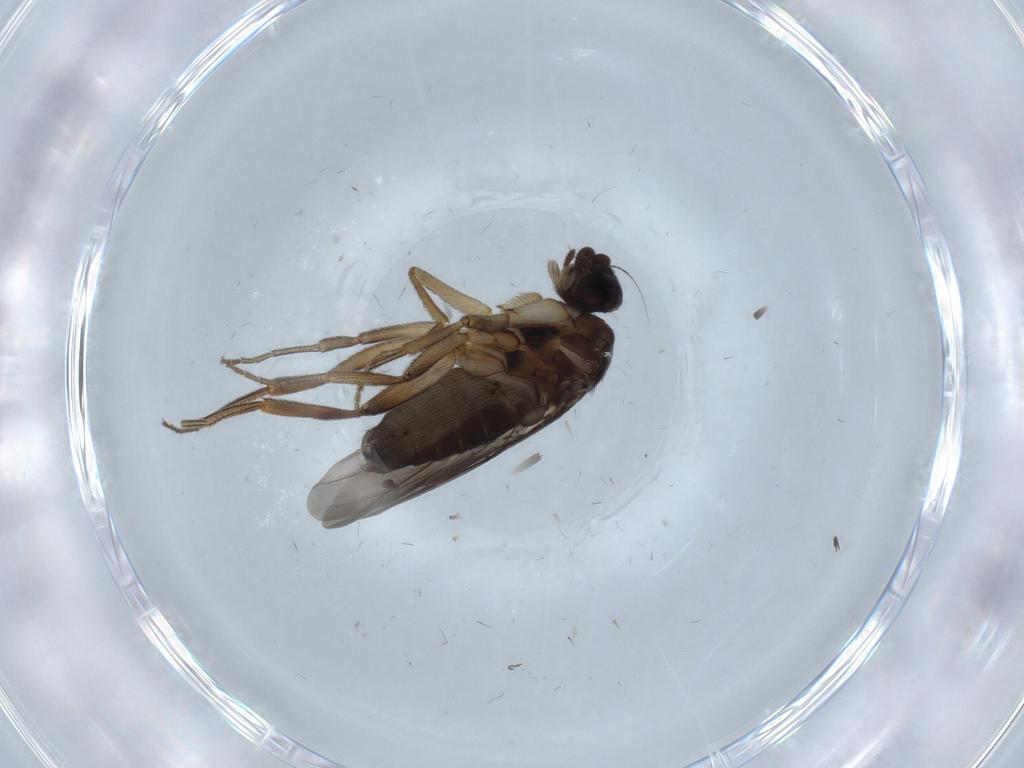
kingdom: Animalia
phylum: Arthropoda
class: Insecta
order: Diptera
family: Phoridae
